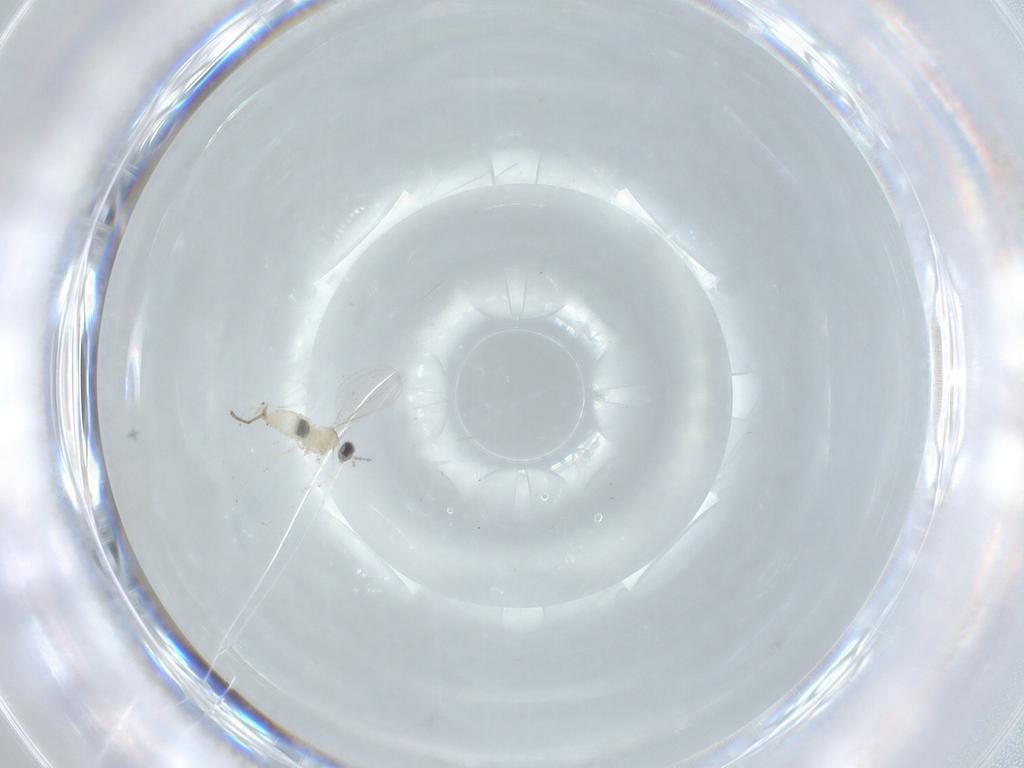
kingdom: Animalia
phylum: Arthropoda
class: Insecta
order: Diptera
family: Cecidomyiidae
